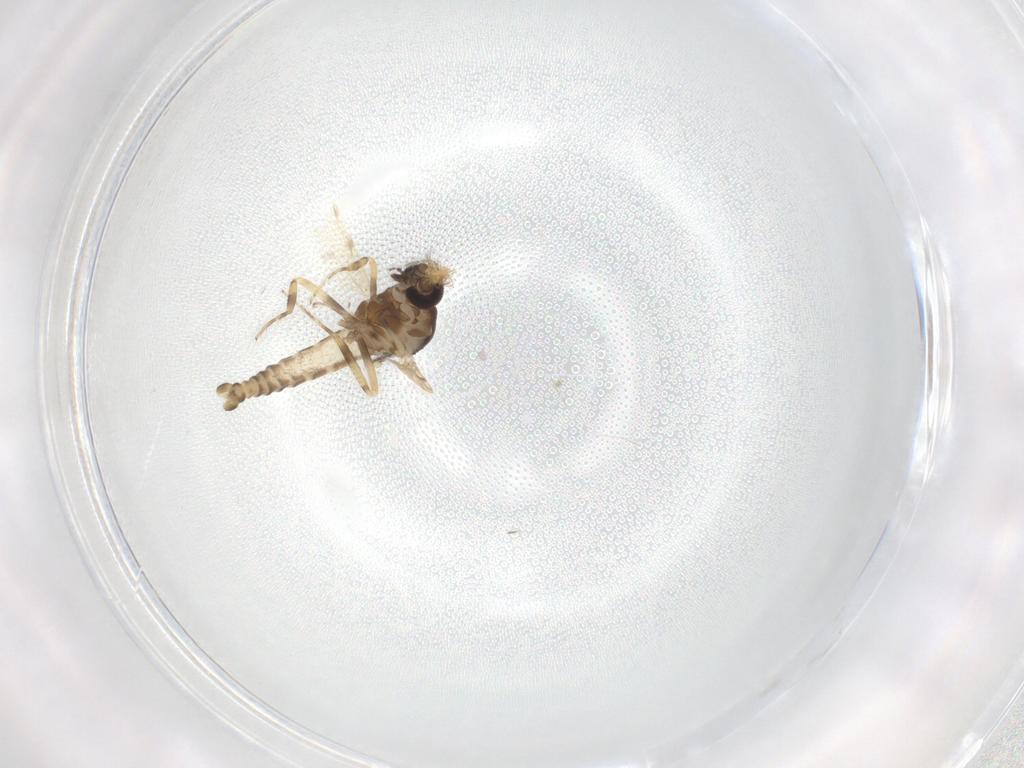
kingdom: Animalia
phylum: Arthropoda
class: Insecta
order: Diptera
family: Ceratopogonidae
